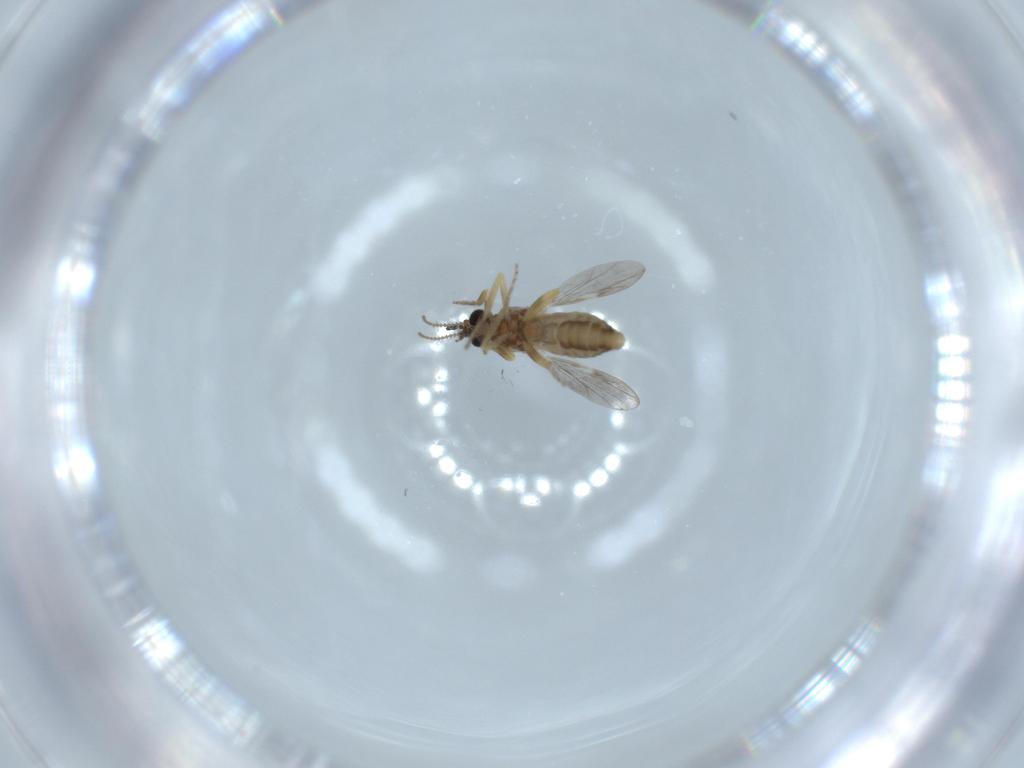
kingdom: Animalia
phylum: Arthropoda
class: Insecta
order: Diptera
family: Ceratopogonidae
